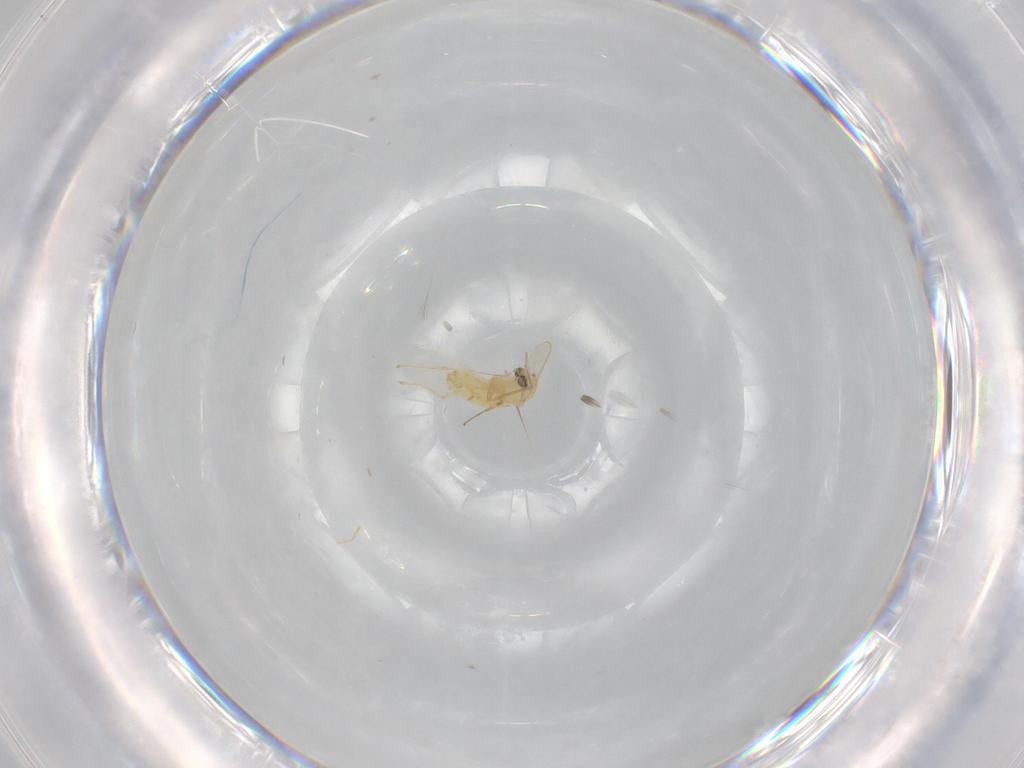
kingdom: Animalia
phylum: Arthropoda
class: Insecta
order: Diptera
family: Chironomidae
